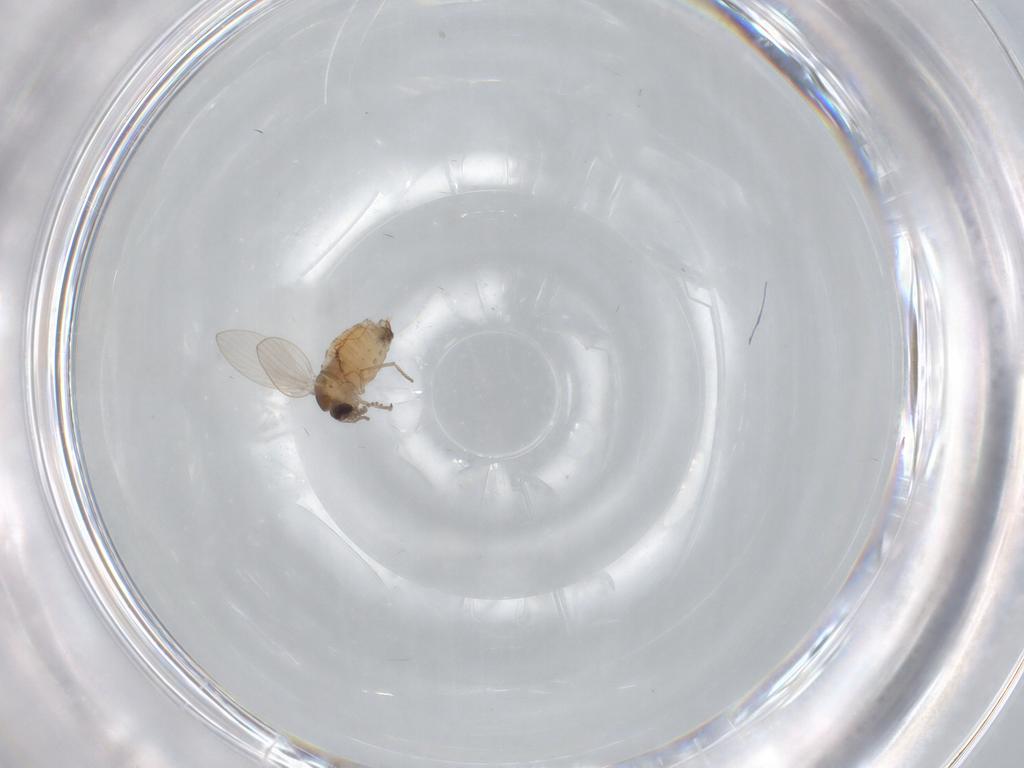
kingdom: Animalia
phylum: Arthropoda
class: Insecta
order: Diptera
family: Psychodidae
